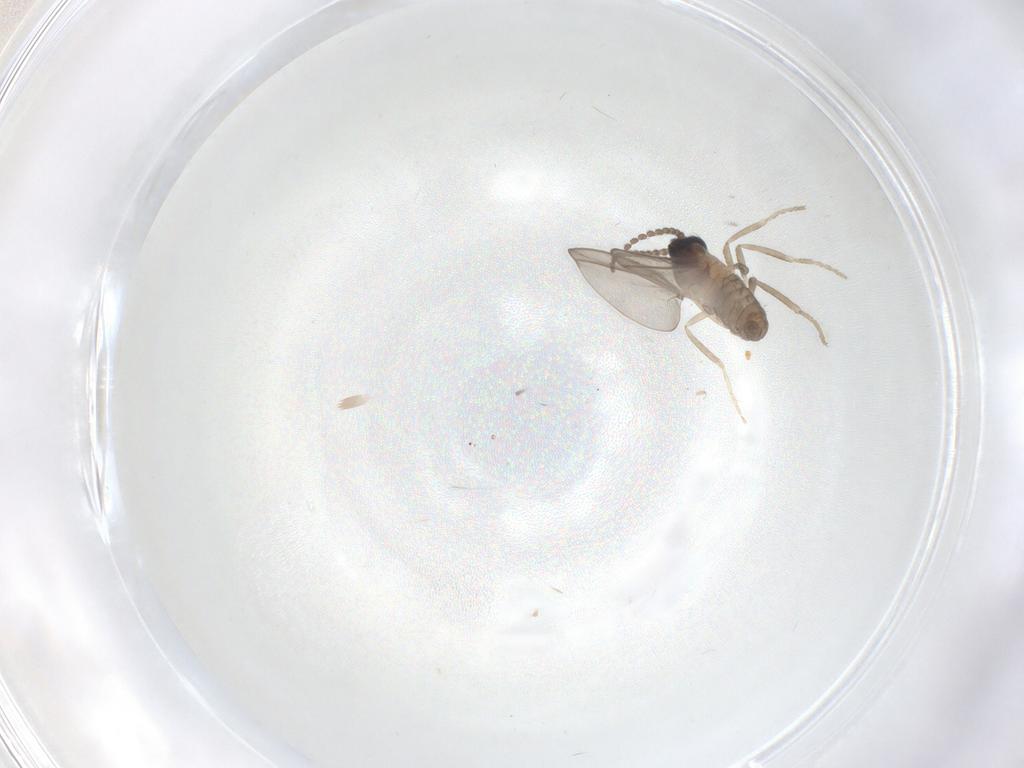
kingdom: Animalia
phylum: Arthropoda
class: Insecta
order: Diptera
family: Cecidomyiidae
